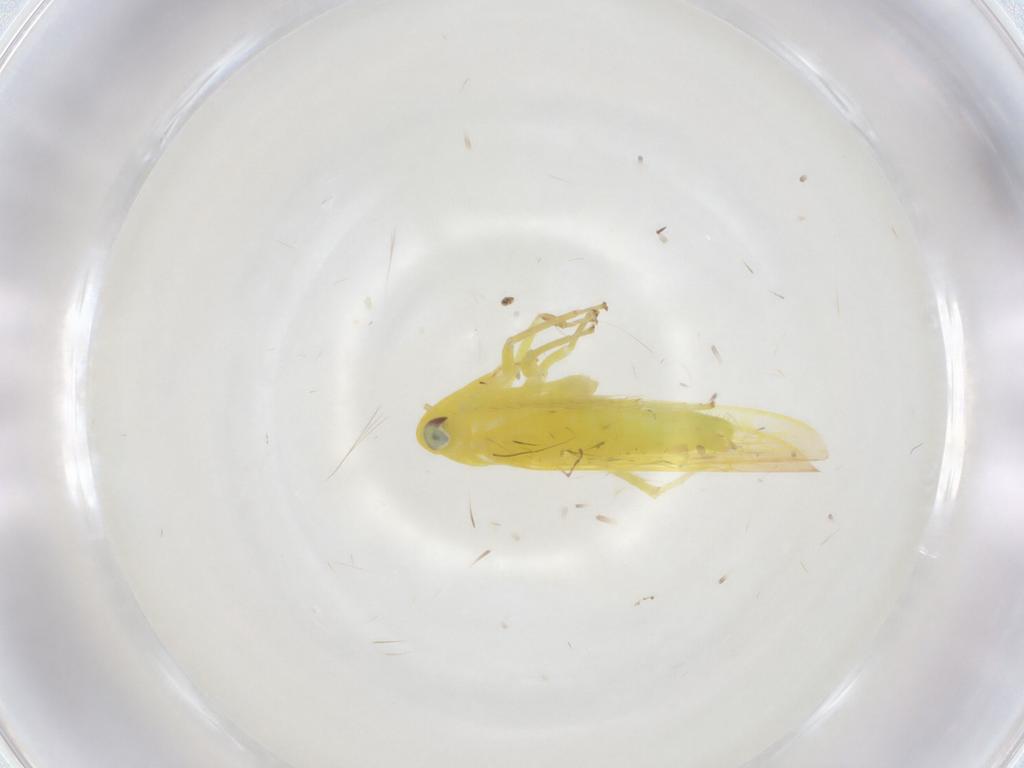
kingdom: Animalia
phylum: Arthropoda
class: Insecta
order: Hemiptera
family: Cicadellidae
